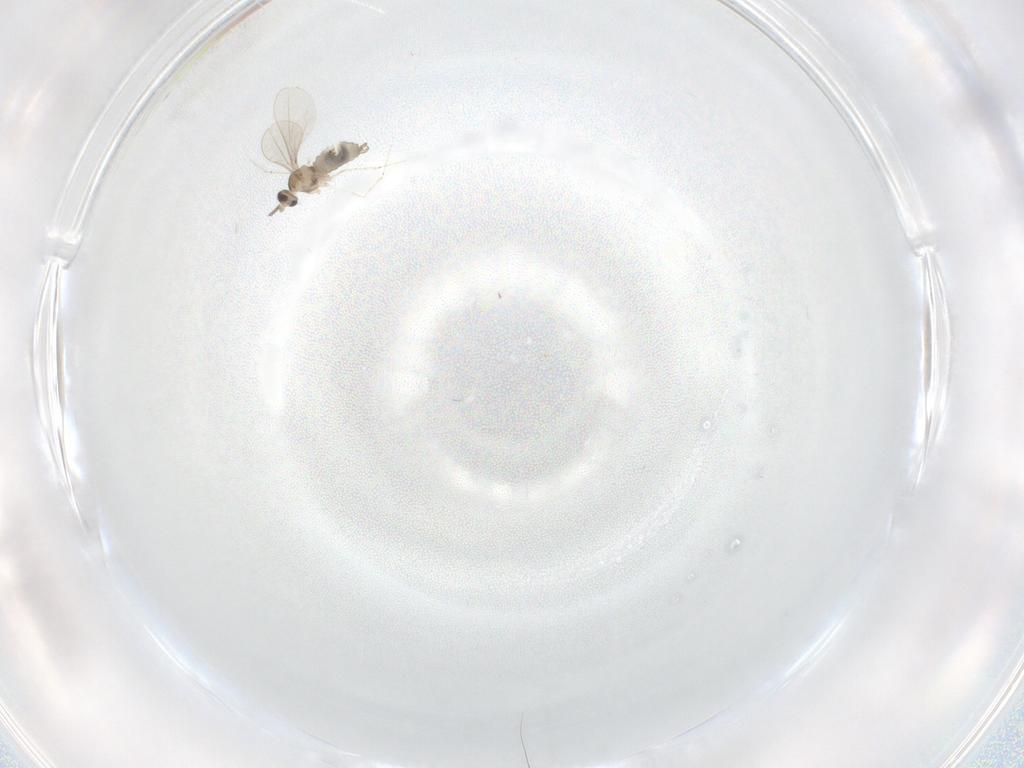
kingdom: Animalia
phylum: Arthropoda
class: Insecta
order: Diptera
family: Cecidomyiidae
